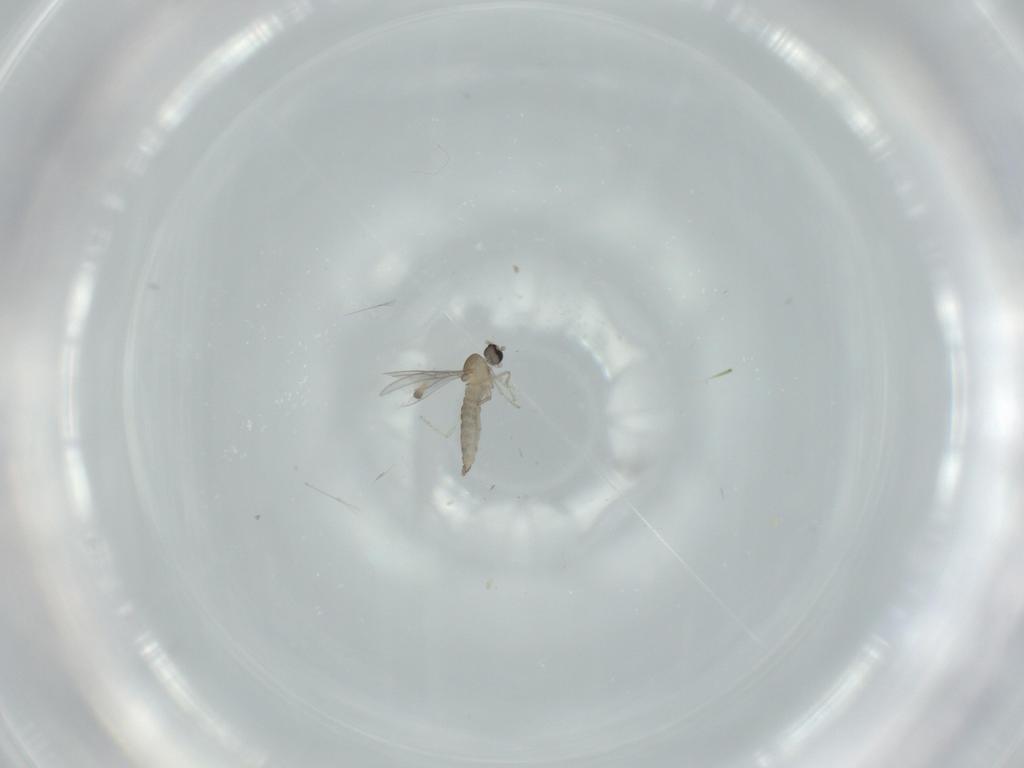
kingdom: Animalia
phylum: Arthropoda
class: Insecta
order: Diptera
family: Cecidomyiidae
